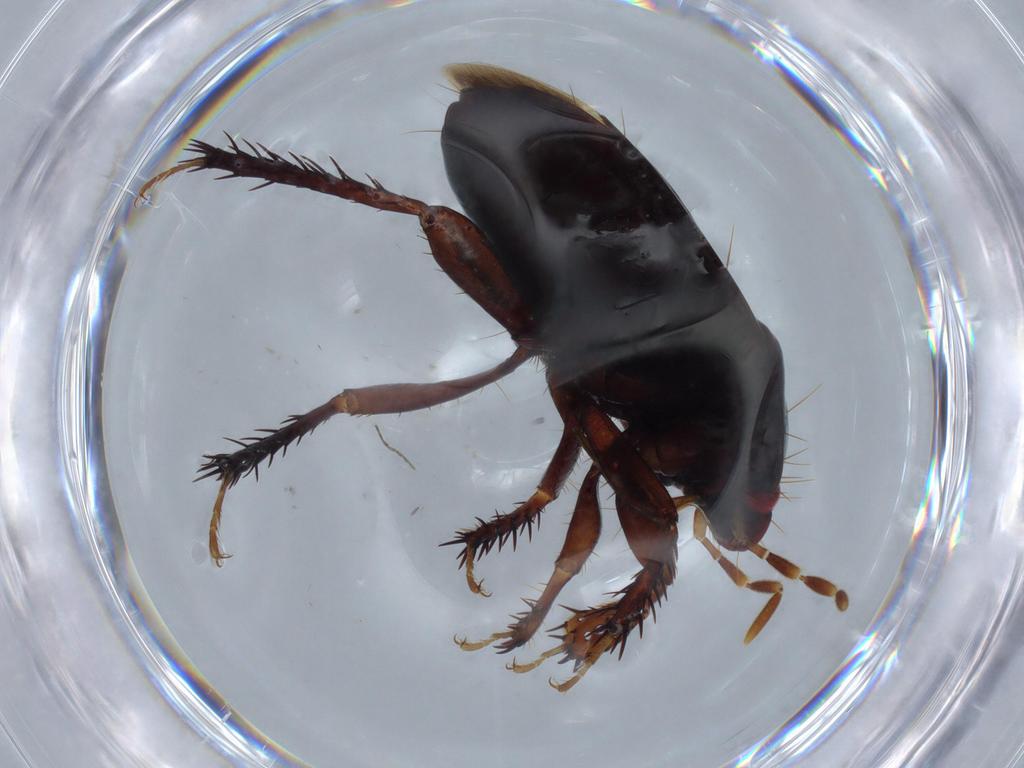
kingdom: Animalia
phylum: Arthropoda
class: Insecta
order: Hemiptera
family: Cydnidae
